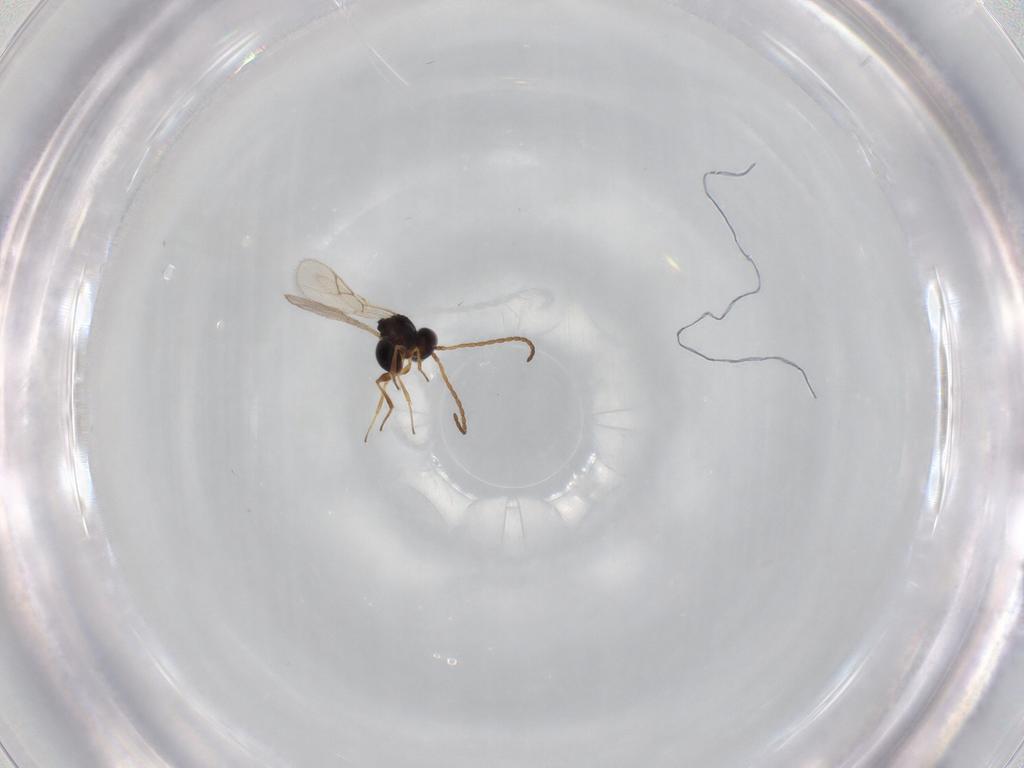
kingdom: Animalia
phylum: Arthropoda
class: Insecta
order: Hymenoptera
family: Figitidae
